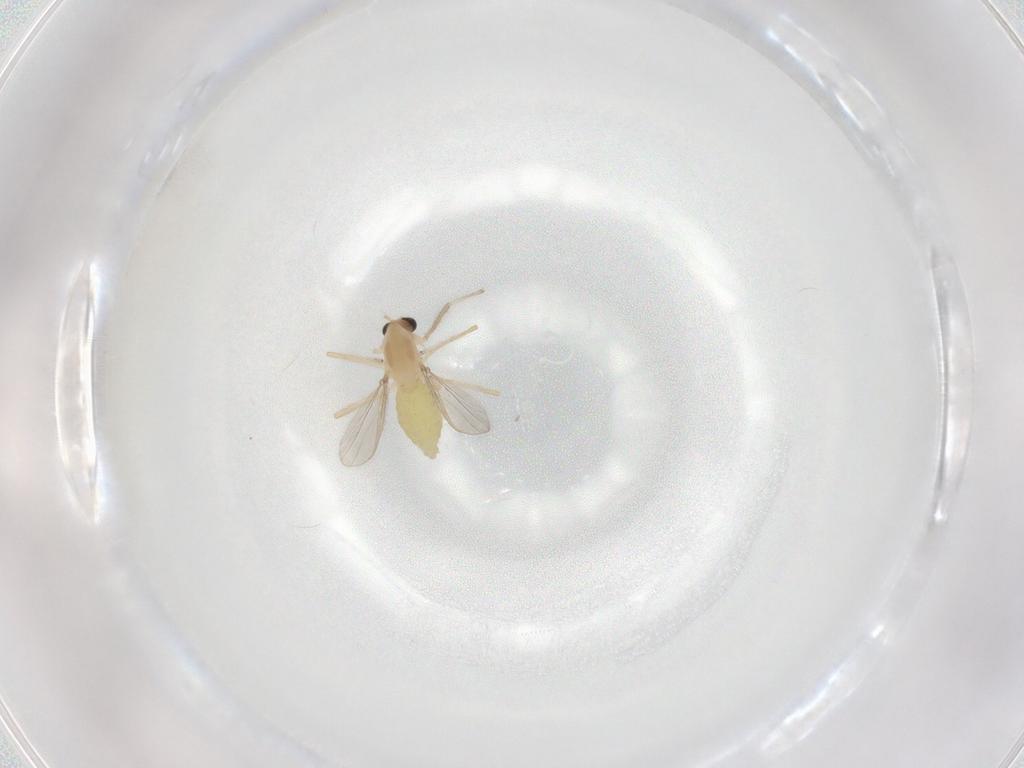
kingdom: Animalia
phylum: Arthropoda
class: Insecta
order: Diptera
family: Chironomidae
